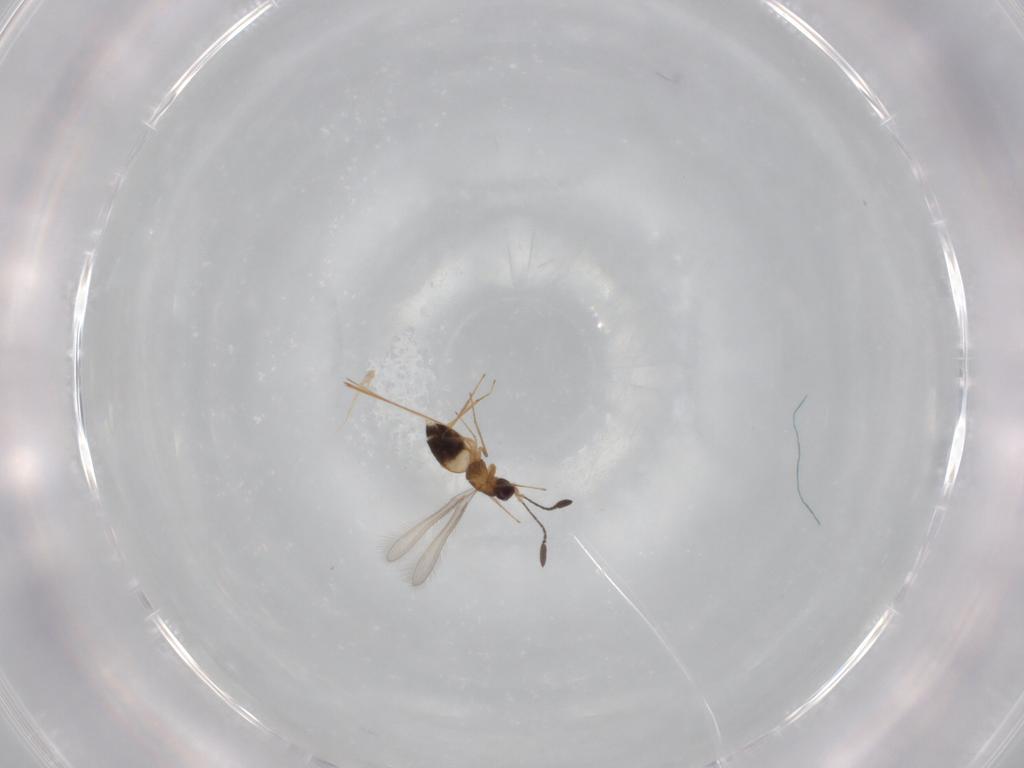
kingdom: Animalia
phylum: Arthropoda
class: Insecta
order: Hymenoptera
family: Mymaridae
